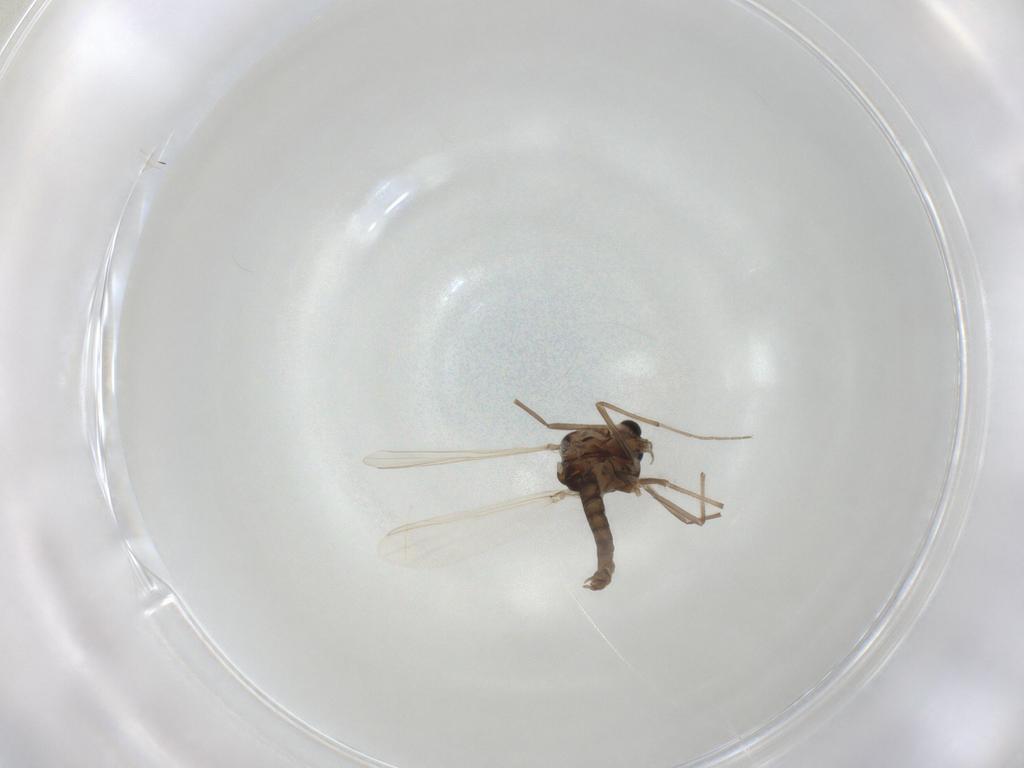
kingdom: Animalia
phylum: Arthropoda
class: Insecta
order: Diptera
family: Chironomidae
